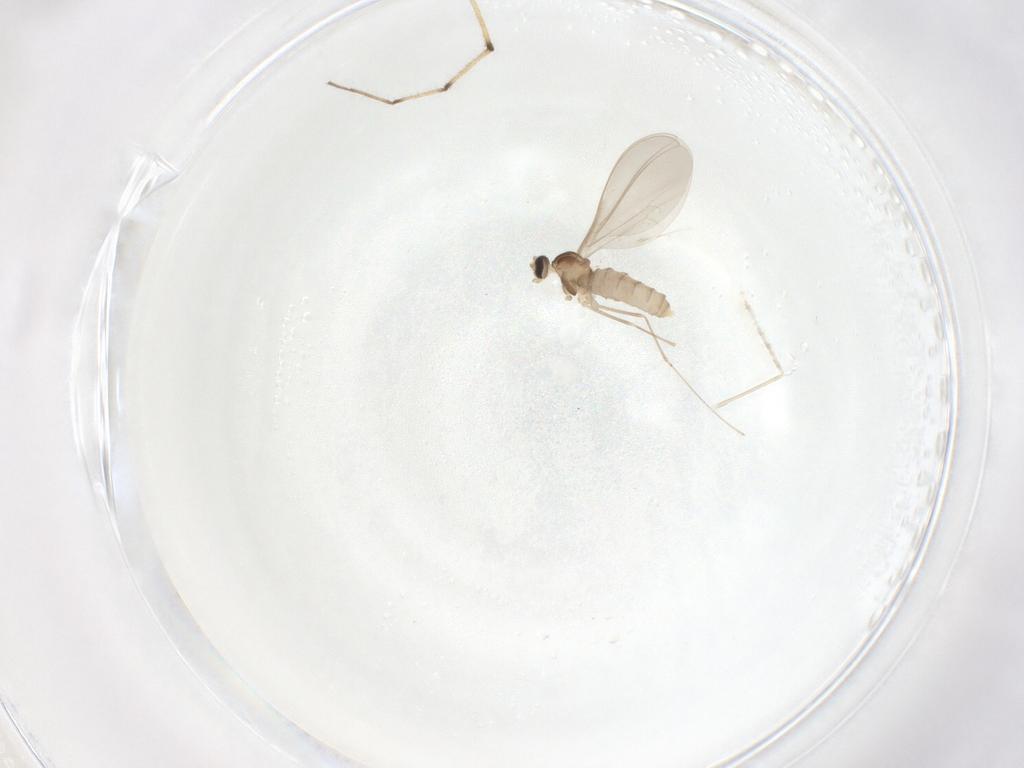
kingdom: Animalia
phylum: Arthropoda
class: Insecta
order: Diptera
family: Cecidomyiidae
